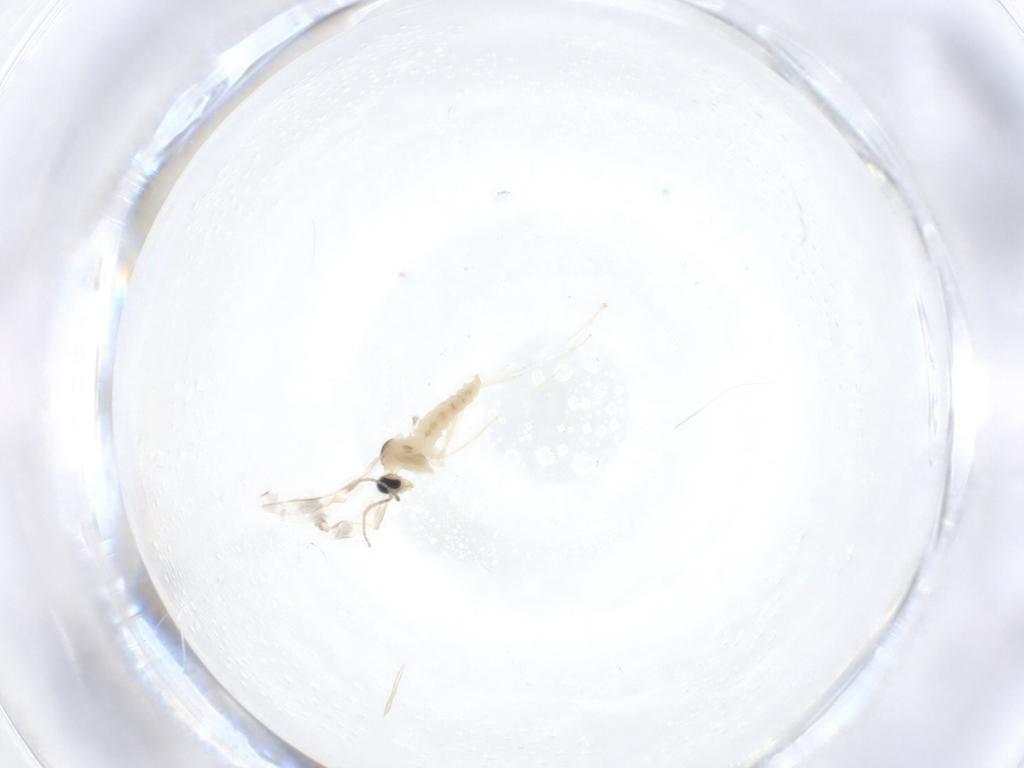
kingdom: Animalia
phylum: Arthropoda
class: Insecta
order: Diptera
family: Cecidomyiidae
